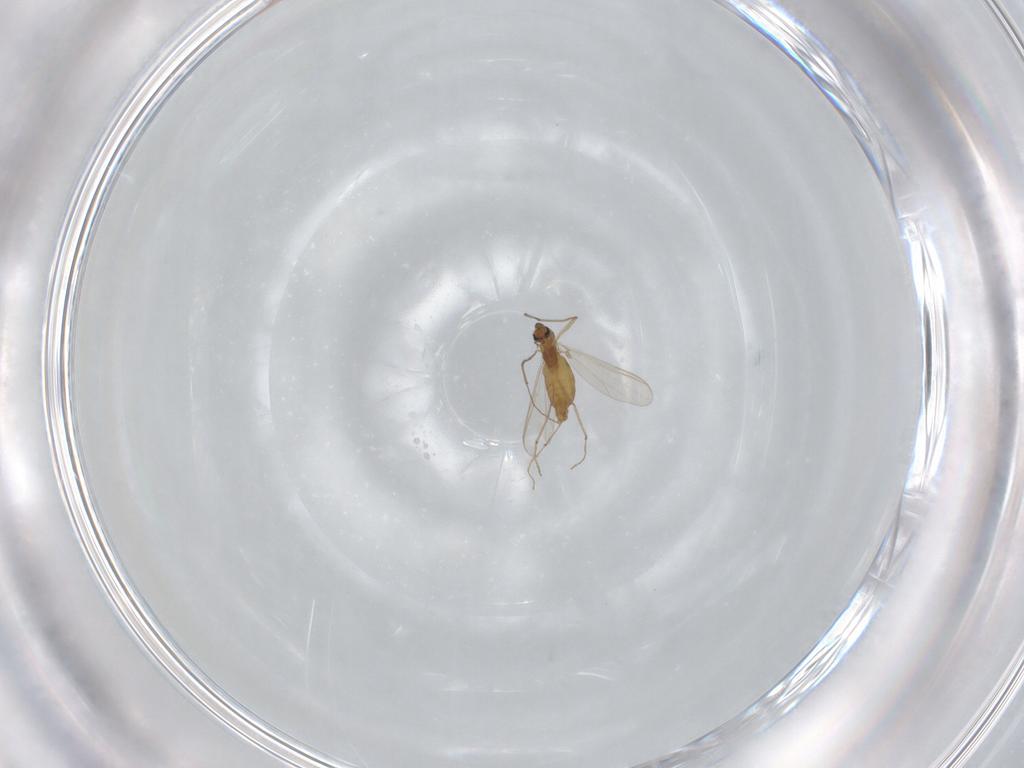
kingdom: Animalia
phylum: Arthropoda
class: Insecta
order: Diptera
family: Chironomidae
